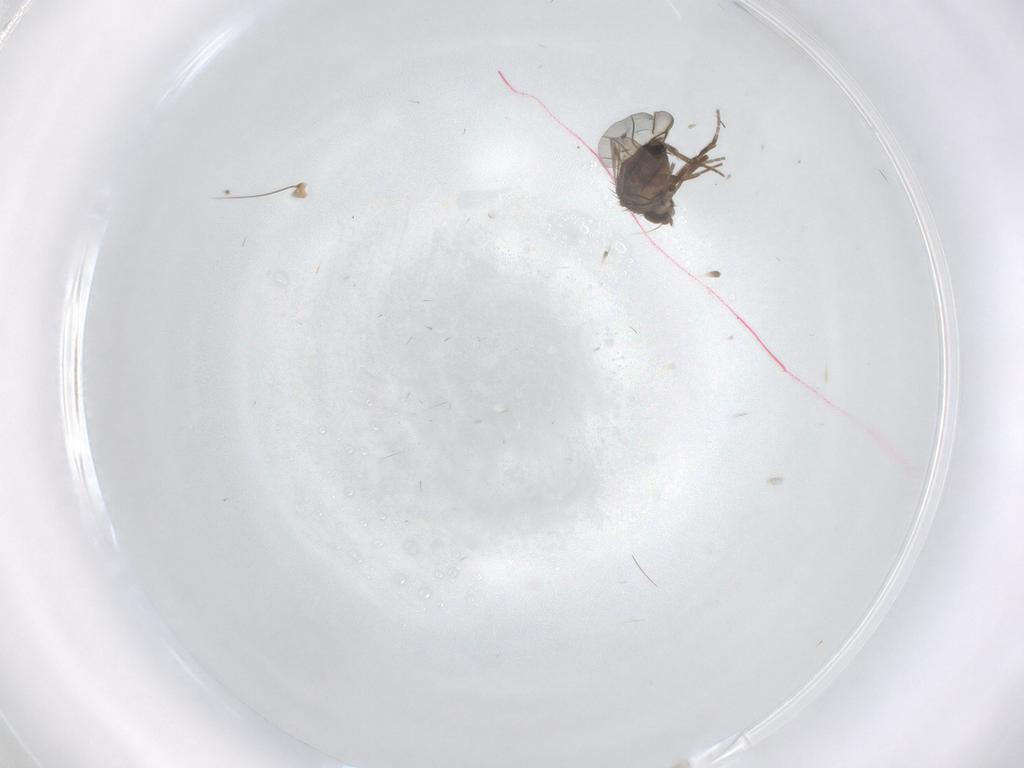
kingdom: Animalia
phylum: Arthropoda
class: Insecta
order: Diptera
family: Phoridae
